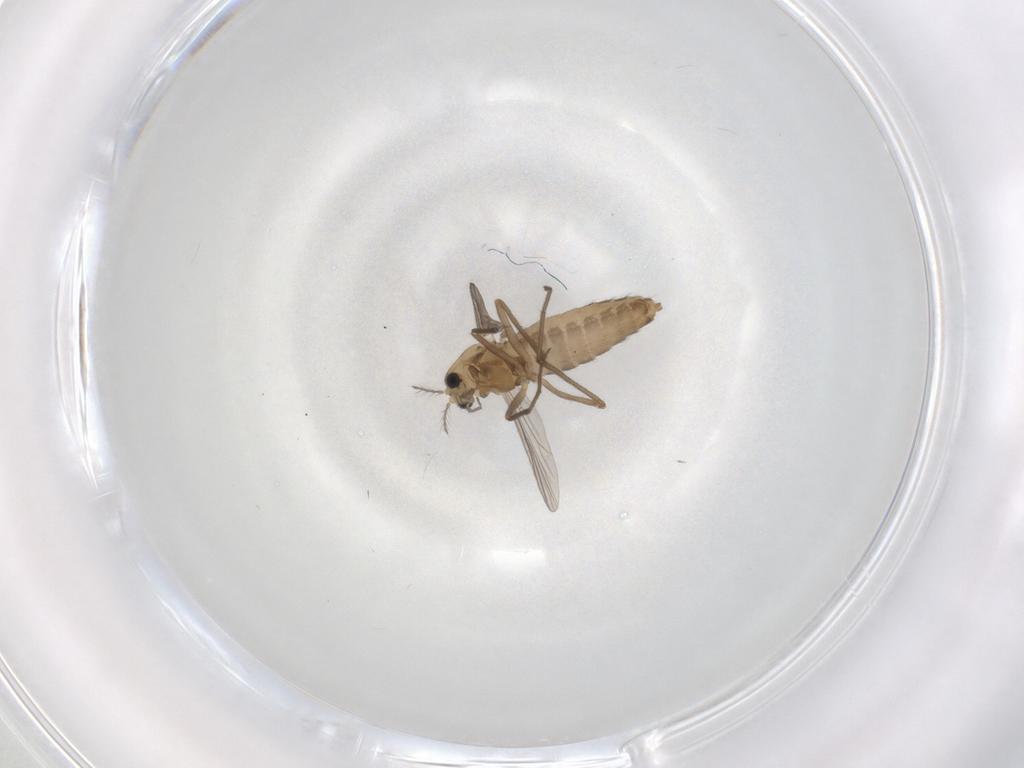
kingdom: Animalia
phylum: Arthropoda
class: Insecta
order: Diptera
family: Chironomidae
